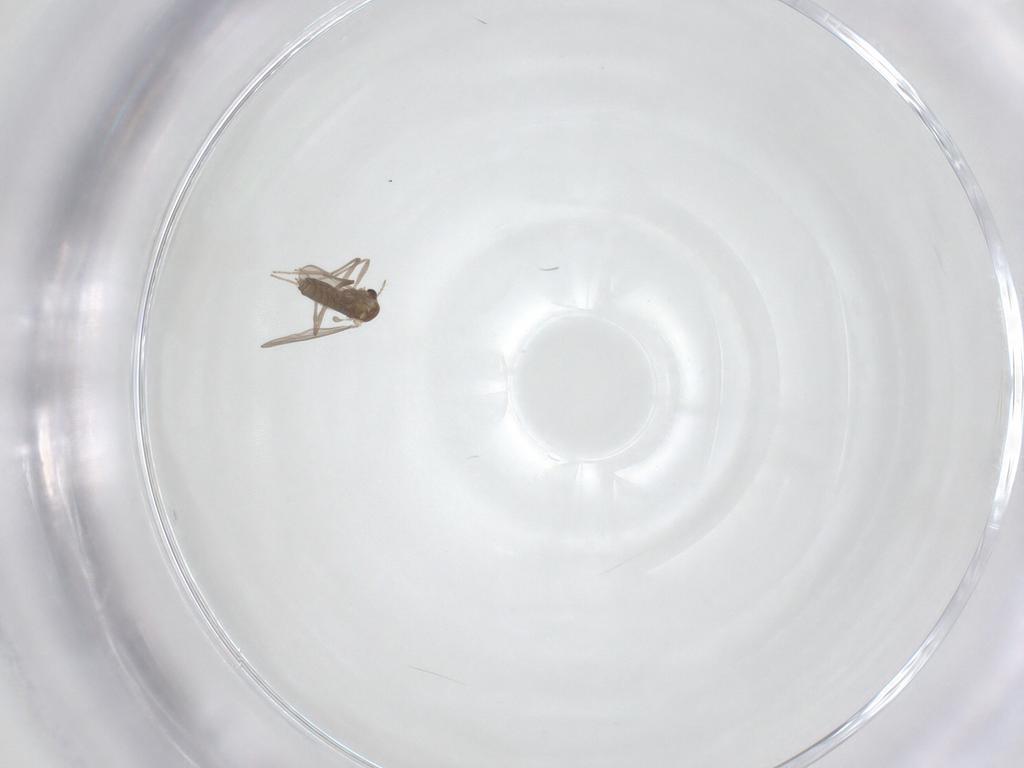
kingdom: Animalia
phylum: Arthropoda
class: Insecta
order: Diptera
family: Chironomidae
